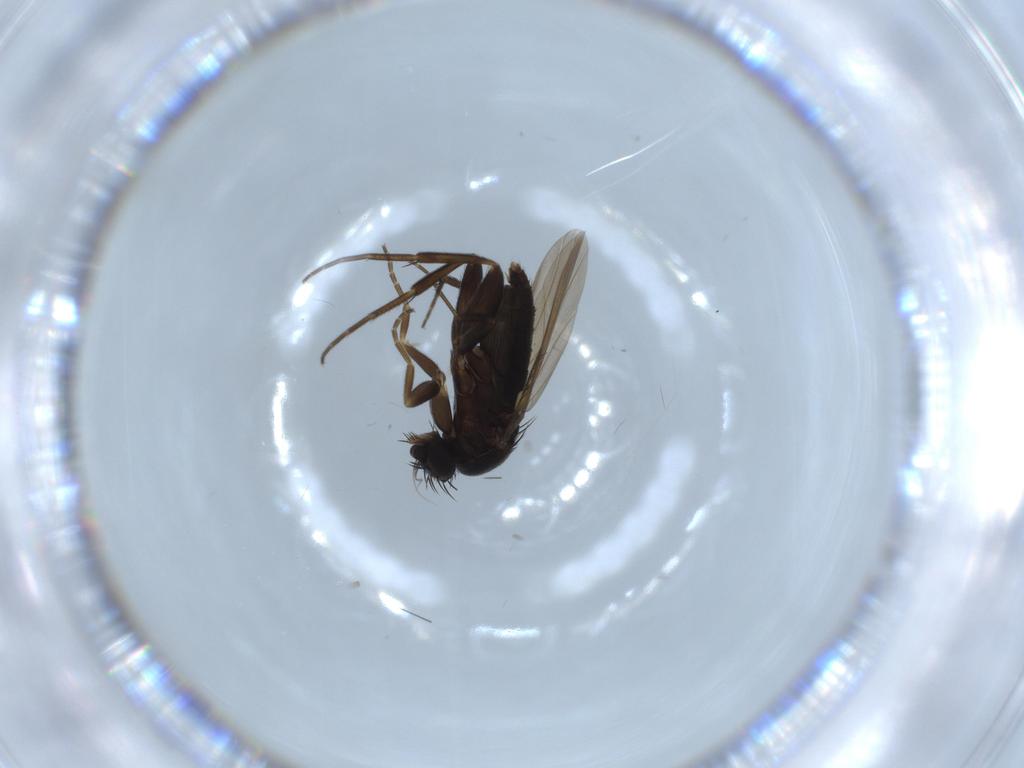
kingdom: Animalia
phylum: Arthropoda
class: Insecta
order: Diptera
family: Phoridae
